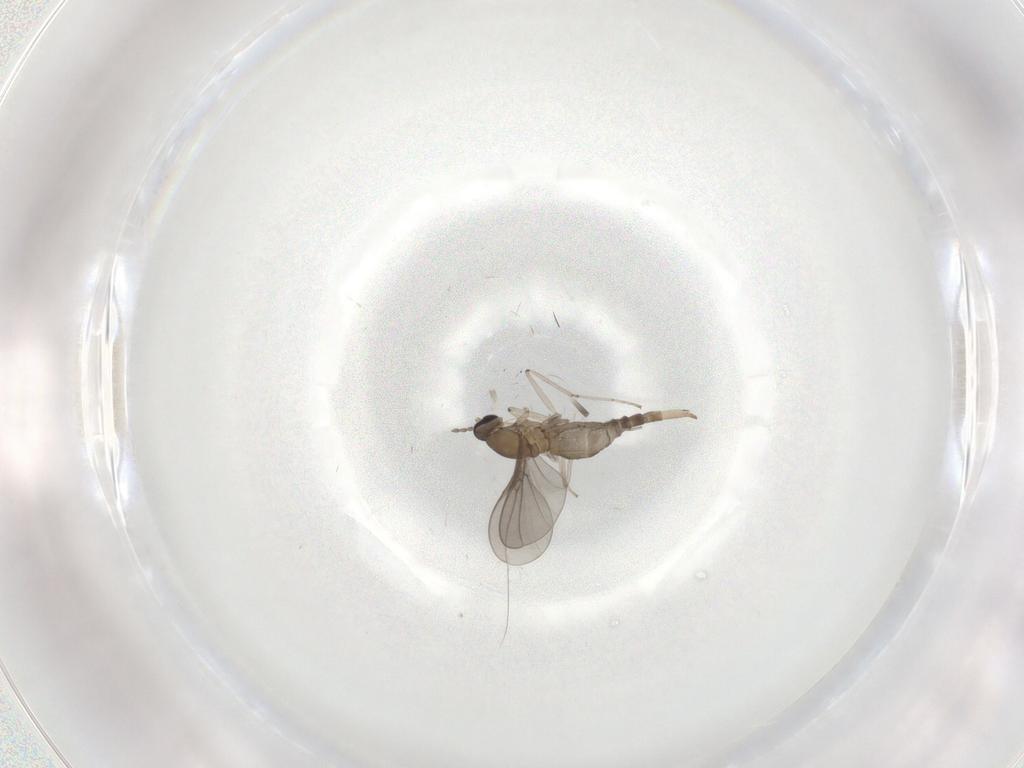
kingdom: Animalia
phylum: Arthropoda
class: Insecta
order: Diptera
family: Cecidomyiidae
